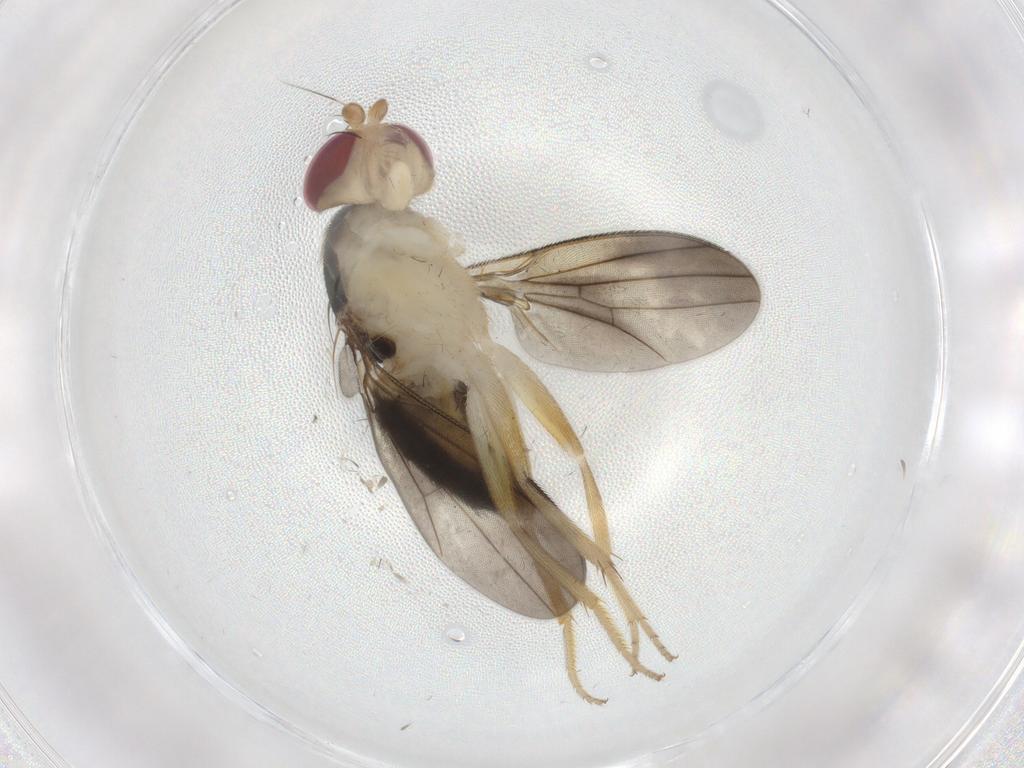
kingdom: Animalia
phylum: Arthropoda
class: Insecta
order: Diptera
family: Cecidomyiidae
